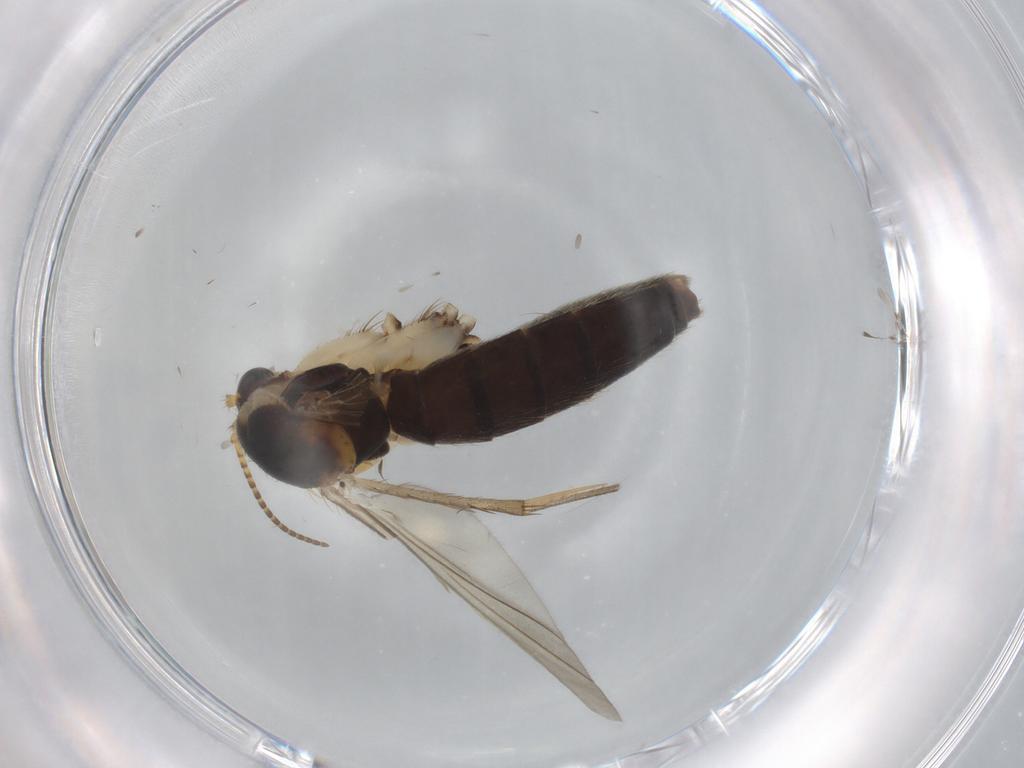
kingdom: Animalia
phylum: Arthropoda
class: Insecta
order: Diptera
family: Mycetophilidae
